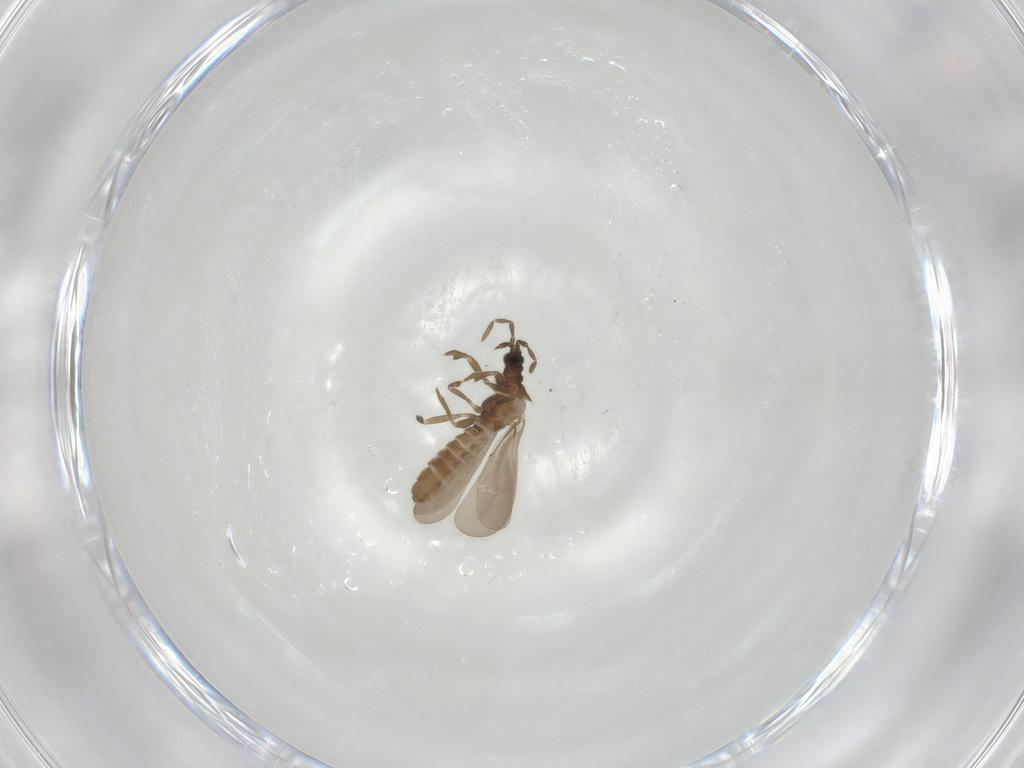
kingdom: Animalia
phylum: Arthropoda
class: Insecta
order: Hemiptera
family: Enicocephalidae
